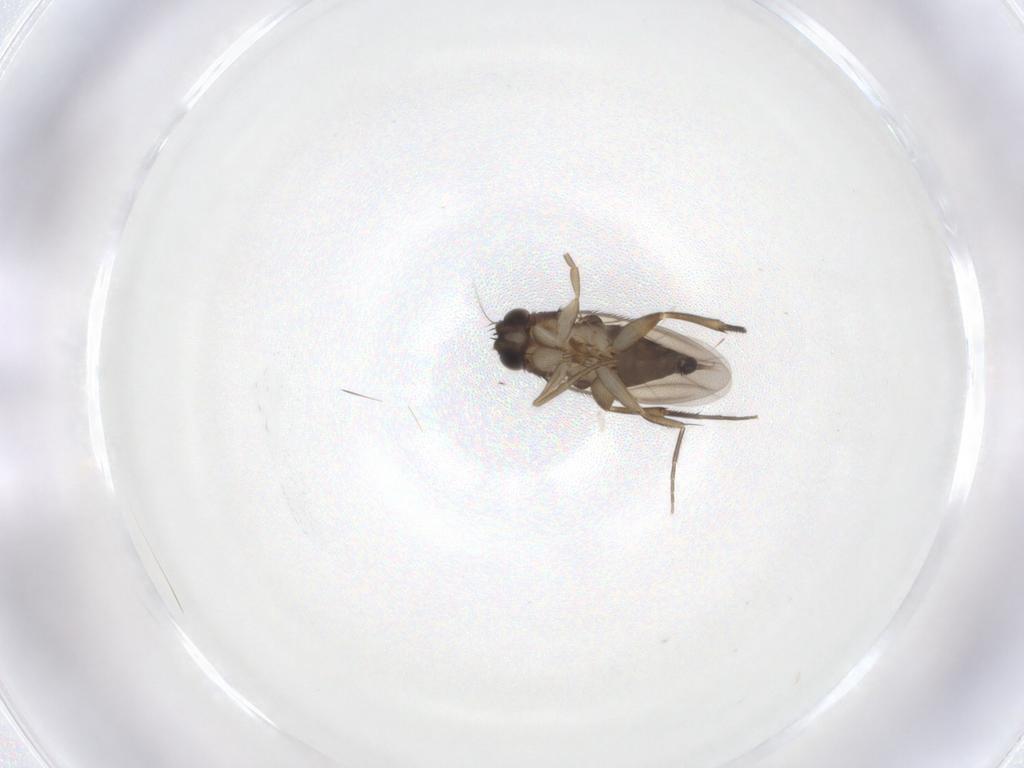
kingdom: Animalia
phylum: Arthropoda
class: Insecta
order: Diptera
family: Phoridae
